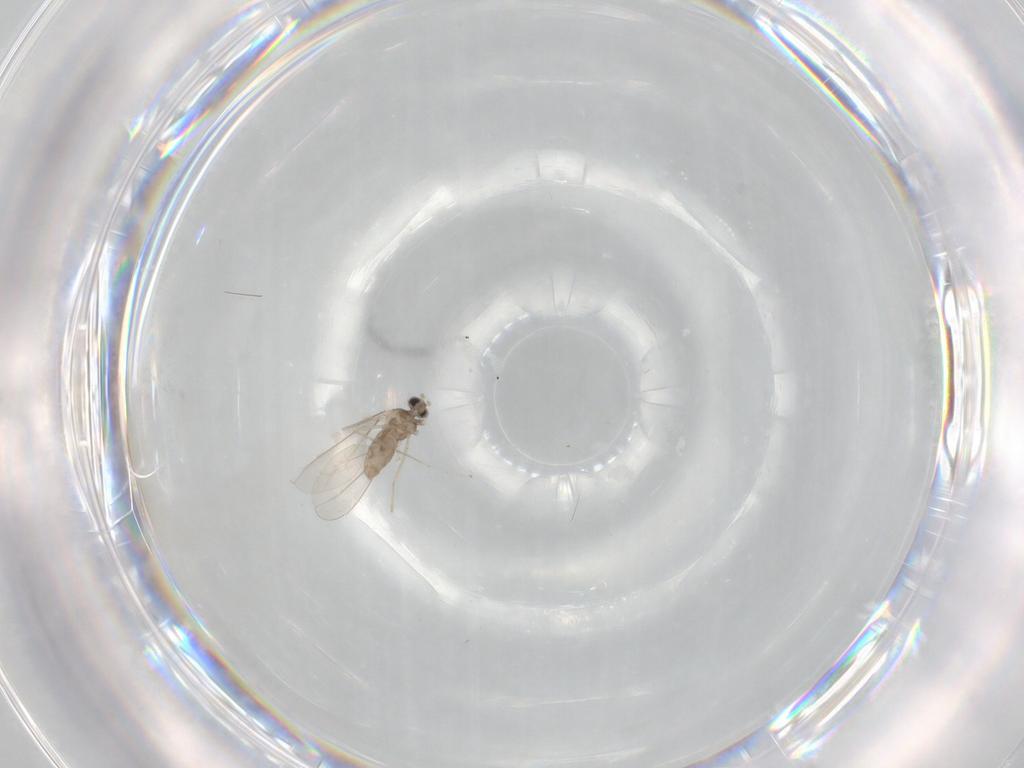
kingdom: Animalia
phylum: Arthropoda
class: Insecta
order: Diptera
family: Cecidomyiidae
